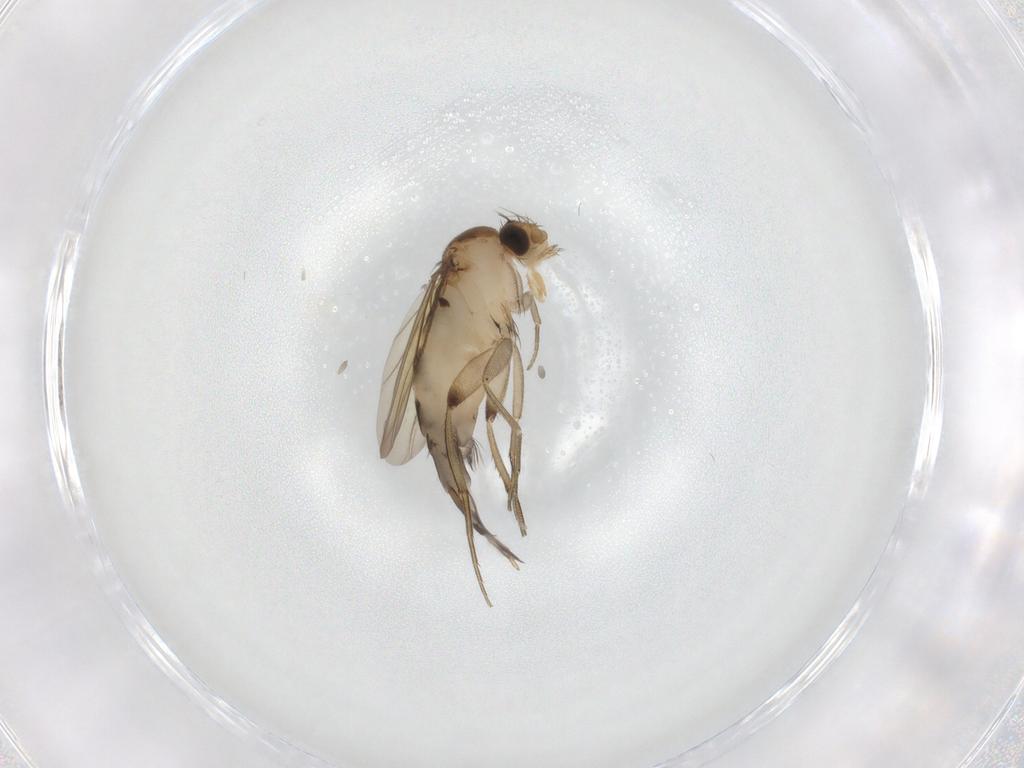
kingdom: Animalia
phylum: Arthropoda
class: Insecta
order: Diptera
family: Phoridae
